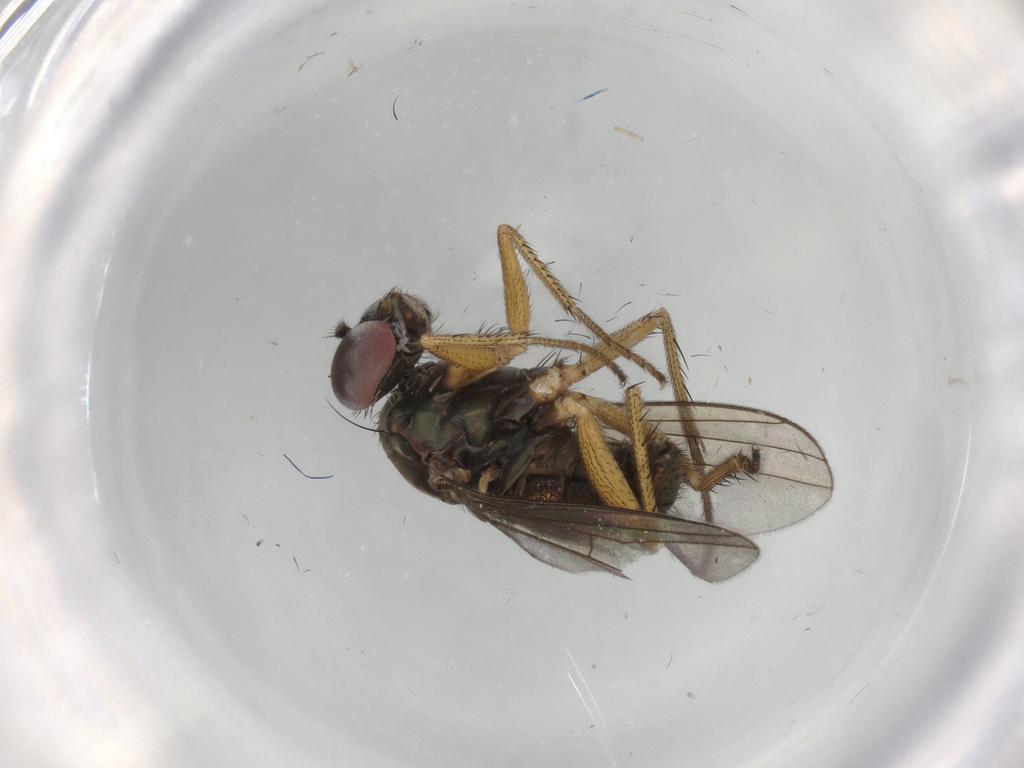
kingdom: Animalia
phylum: Arthropoda
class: Insecta
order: Diptera
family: Dolichopodidae
